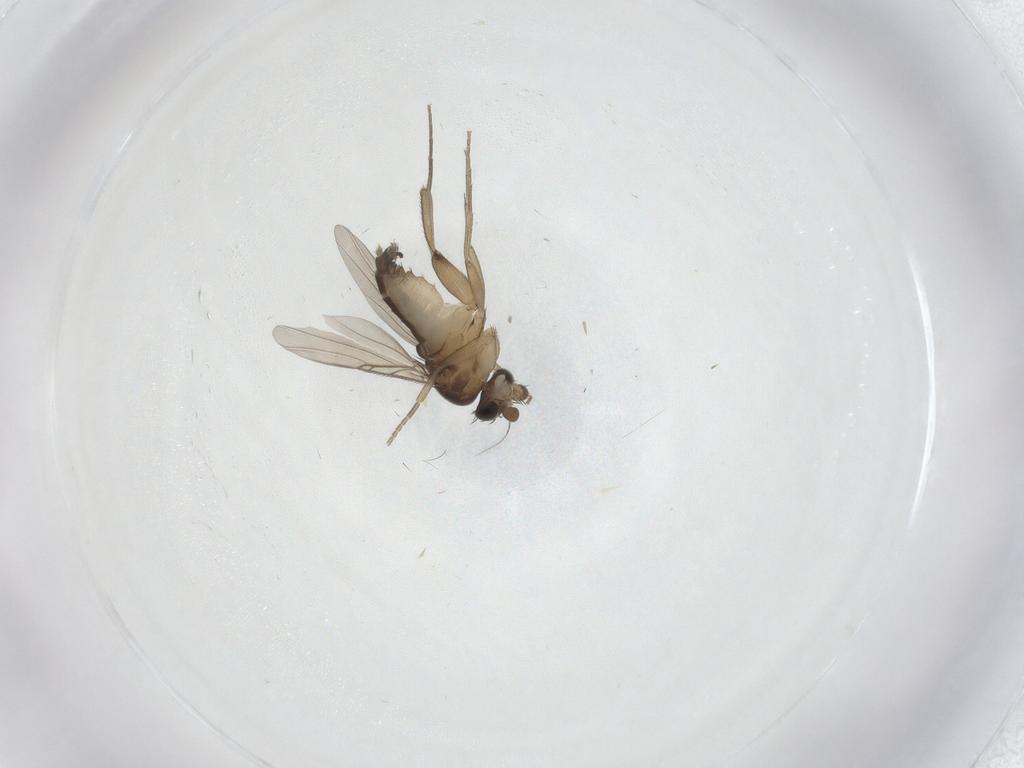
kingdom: Animalia
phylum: Arthropoda
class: Insecta
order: Diptera
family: Phoridae
